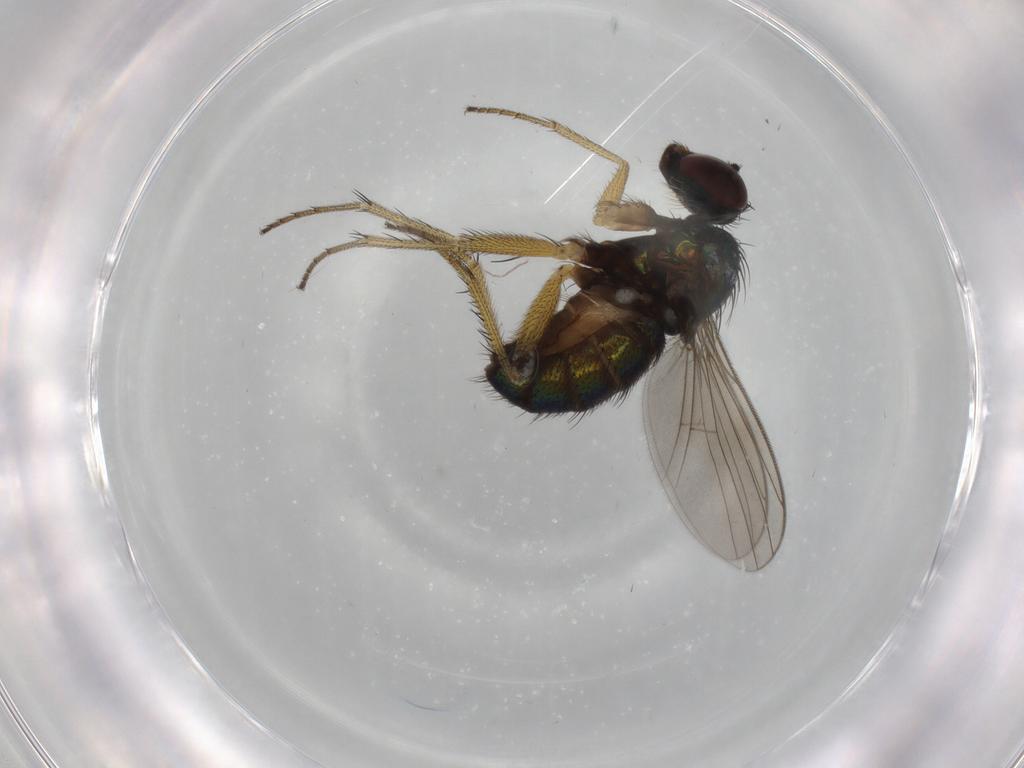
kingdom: Animalia
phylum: Arthropoda
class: Insecta
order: Diptera
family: Dolichopodidae
